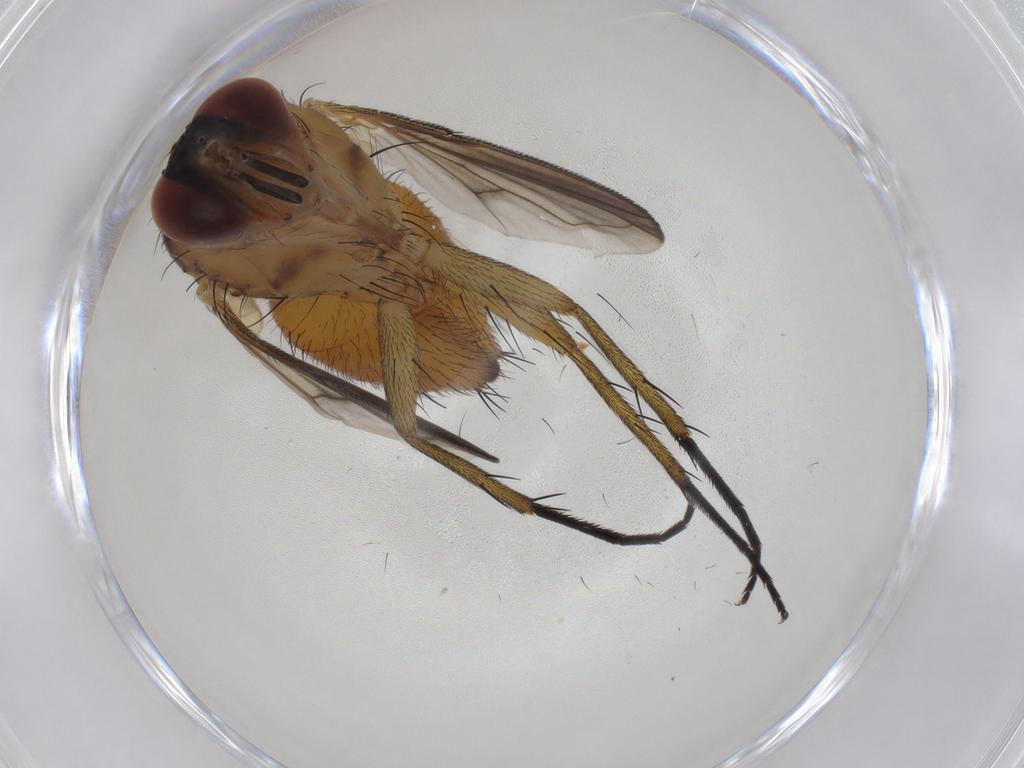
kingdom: Animalia
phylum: Arthropoda
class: Insecta
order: Diptera
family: Tachinidae
